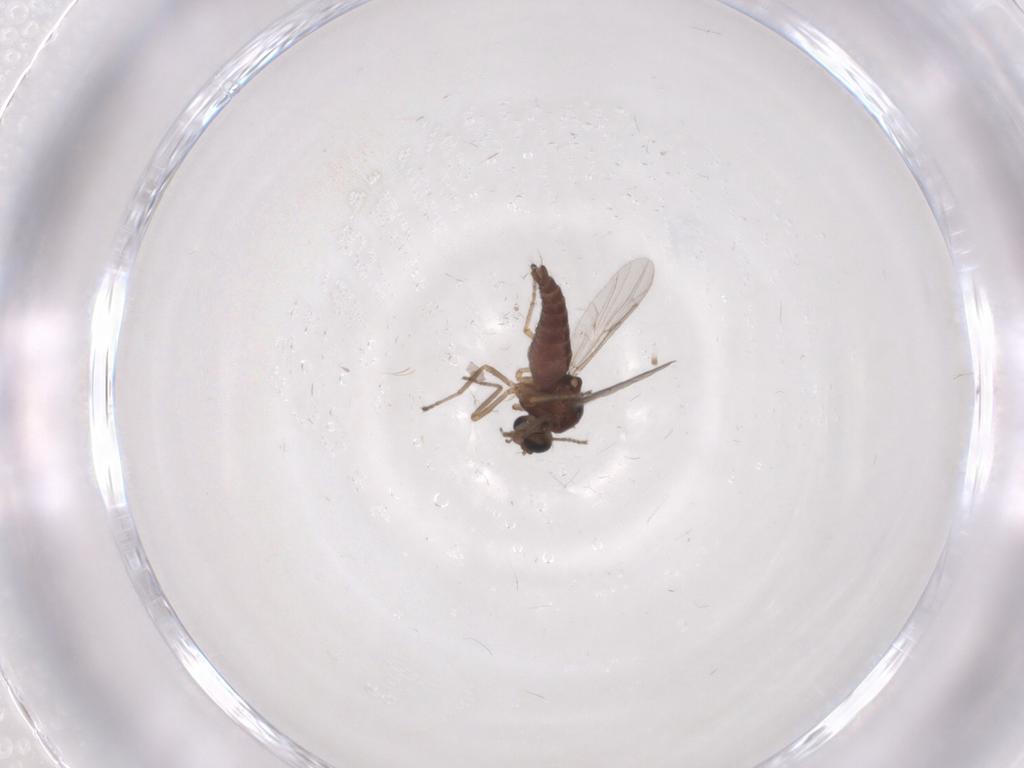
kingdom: Animalia
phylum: Arthropoda
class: Insecta
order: Diptera
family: Ceratopogonidae
